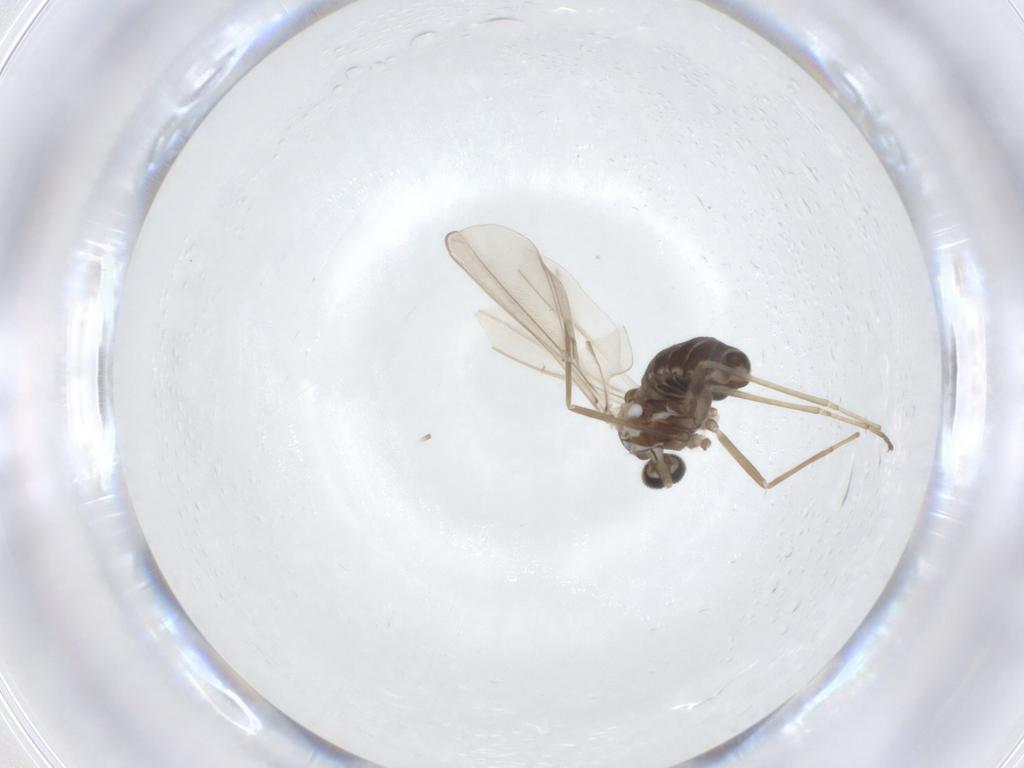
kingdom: Animalia
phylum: Arthropoda
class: Insecta
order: Diptera
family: Cecidomyiidae
